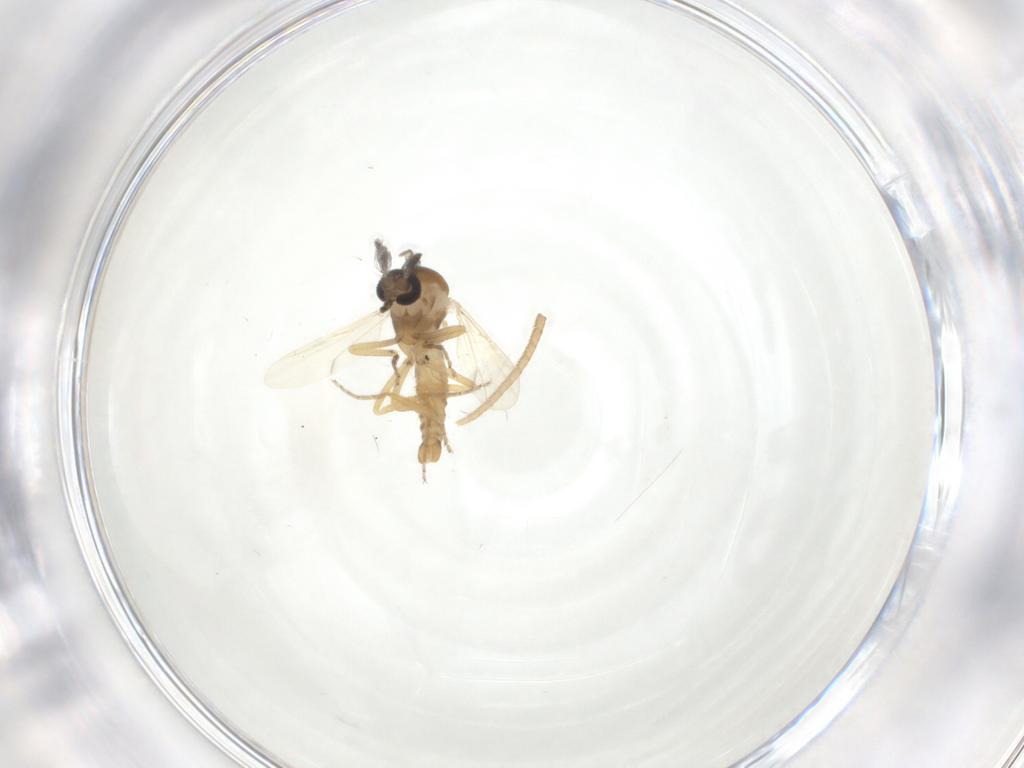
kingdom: Animalia
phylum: Arthropoda
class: Insecta
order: Diptera
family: Ceratopogonidae
